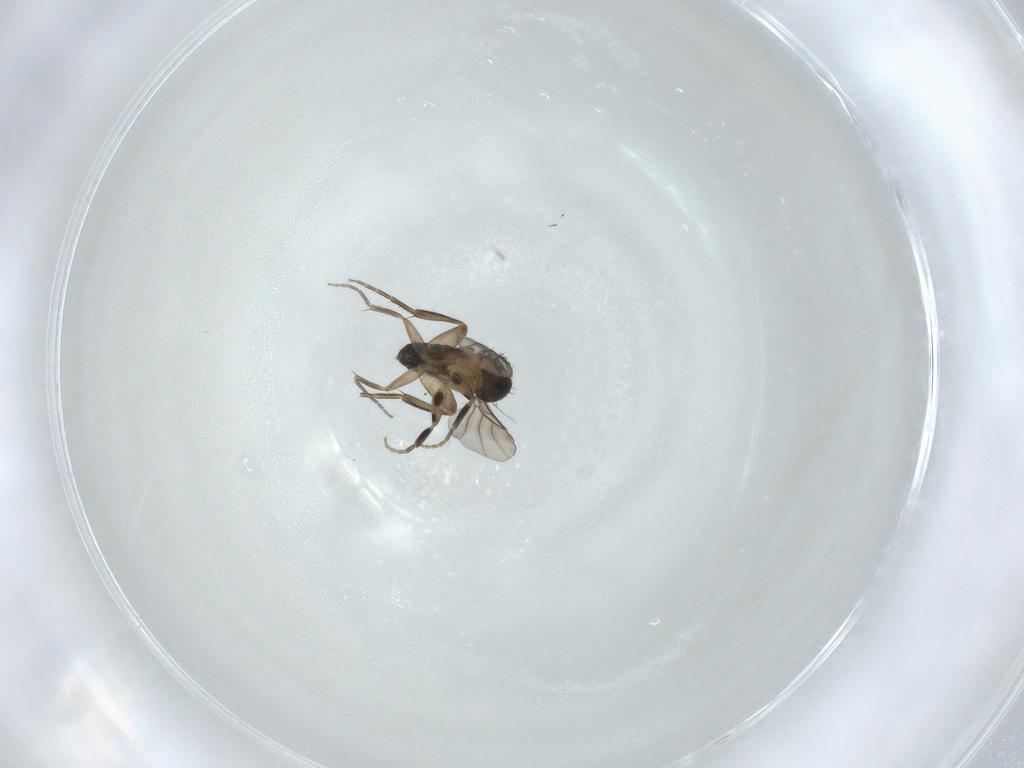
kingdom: Animalia
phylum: Arthropoda
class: Insecta
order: Diptera
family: Phoridae
